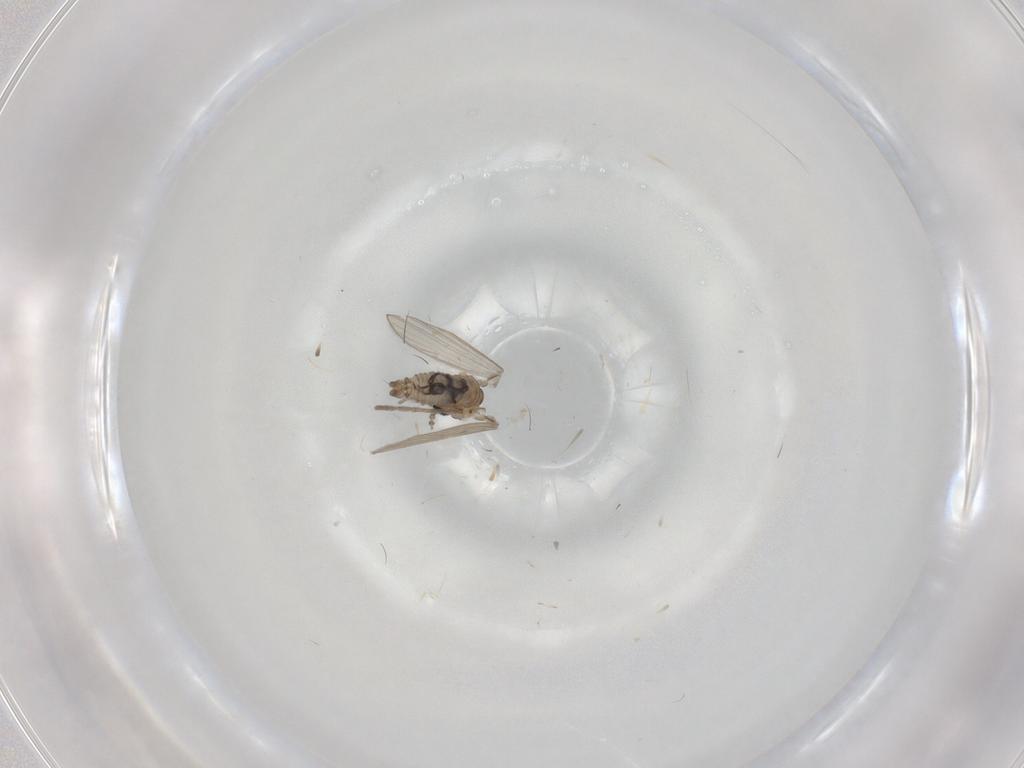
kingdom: Animalia
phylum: Arthropoda
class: Insecta
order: Diptera
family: Psychodidae
